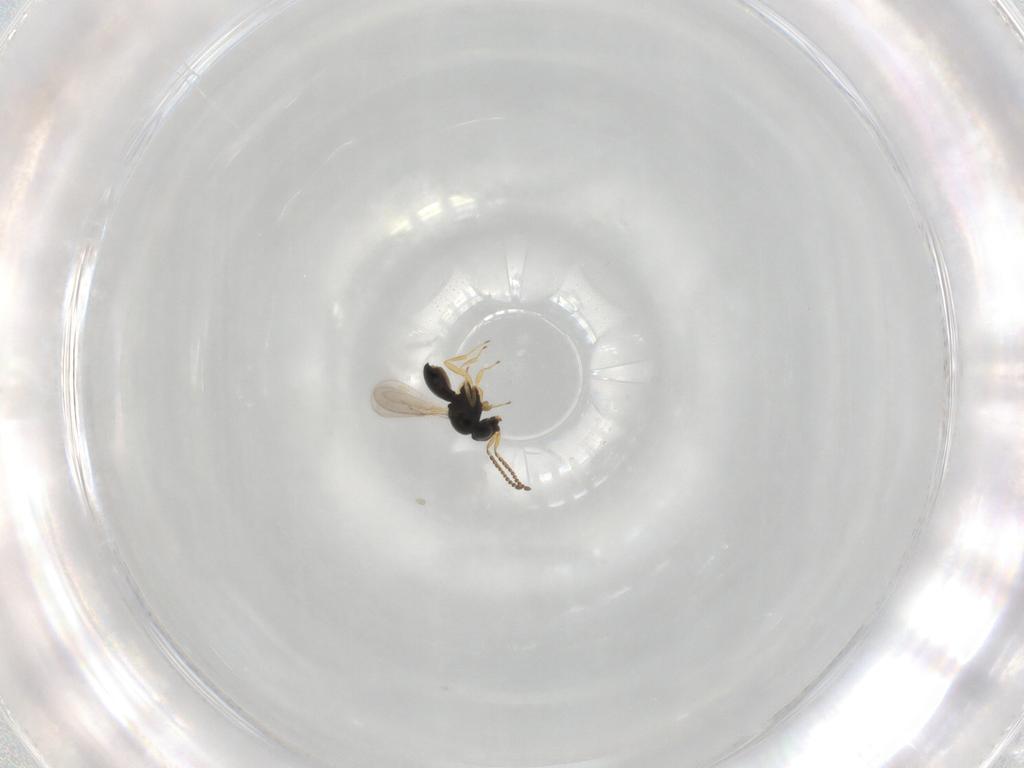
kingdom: Animalia
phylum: Arthropoda
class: Insecta
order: Hymenoptera
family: Scelionidae
